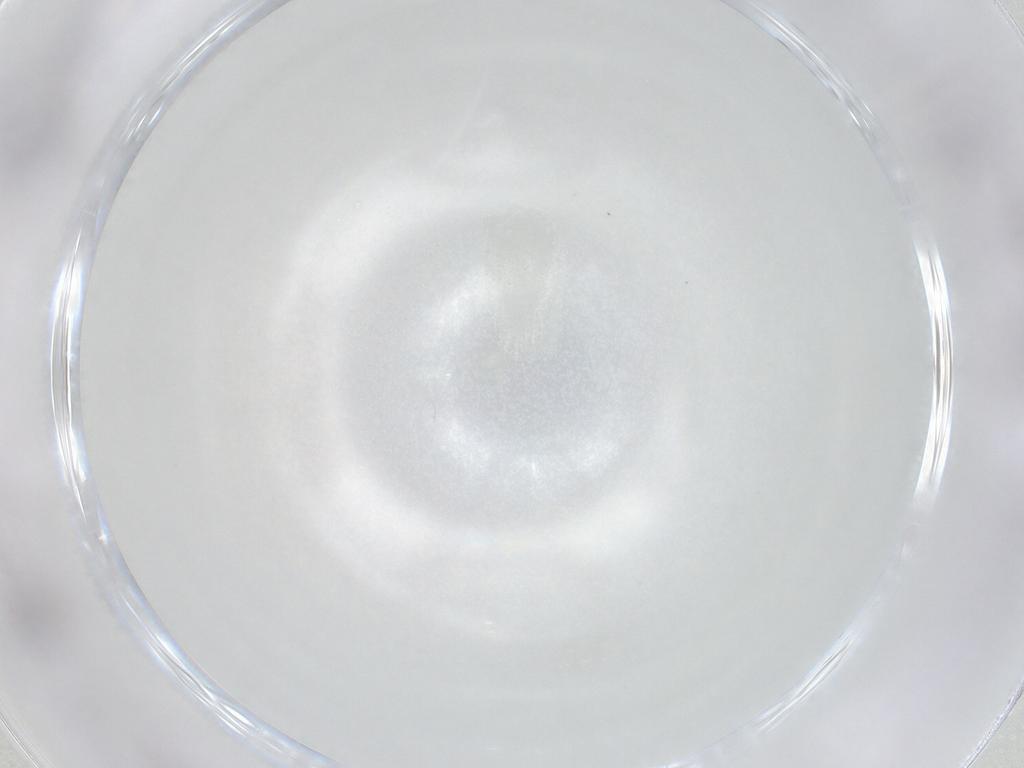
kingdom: Animalia
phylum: Arthropoda
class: Insecta
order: Hemiptera
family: Cicadellidae
